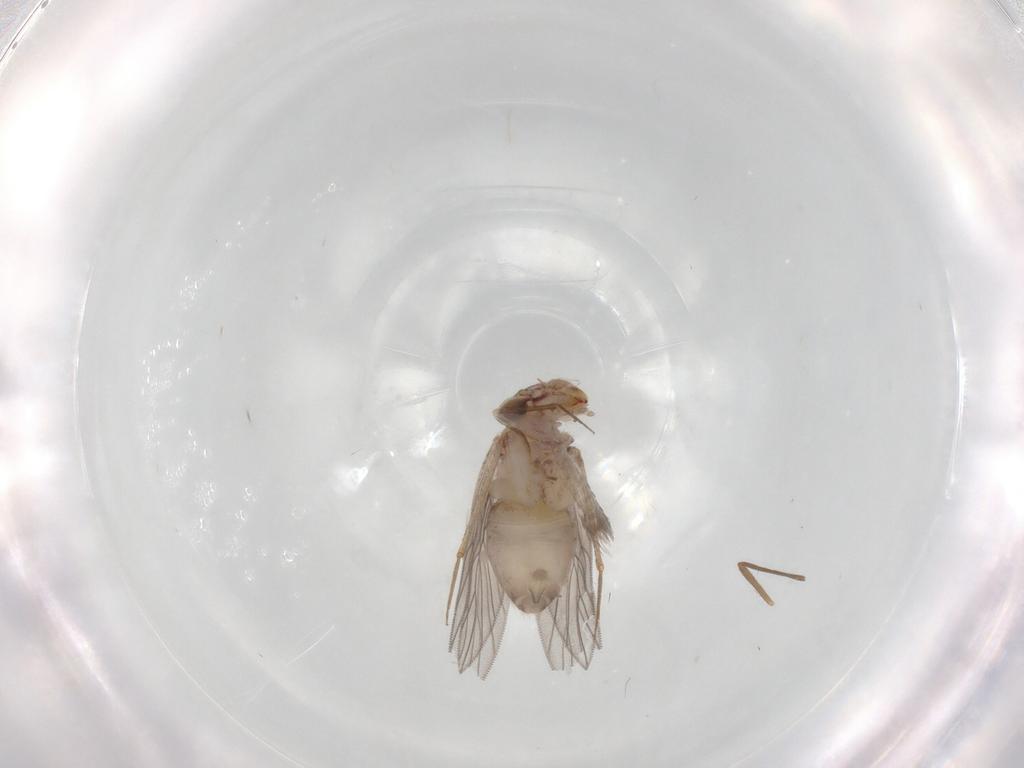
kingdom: Animalia
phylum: Arthropoda
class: Insecta
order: Psocodea
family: Lepidopsocidae
